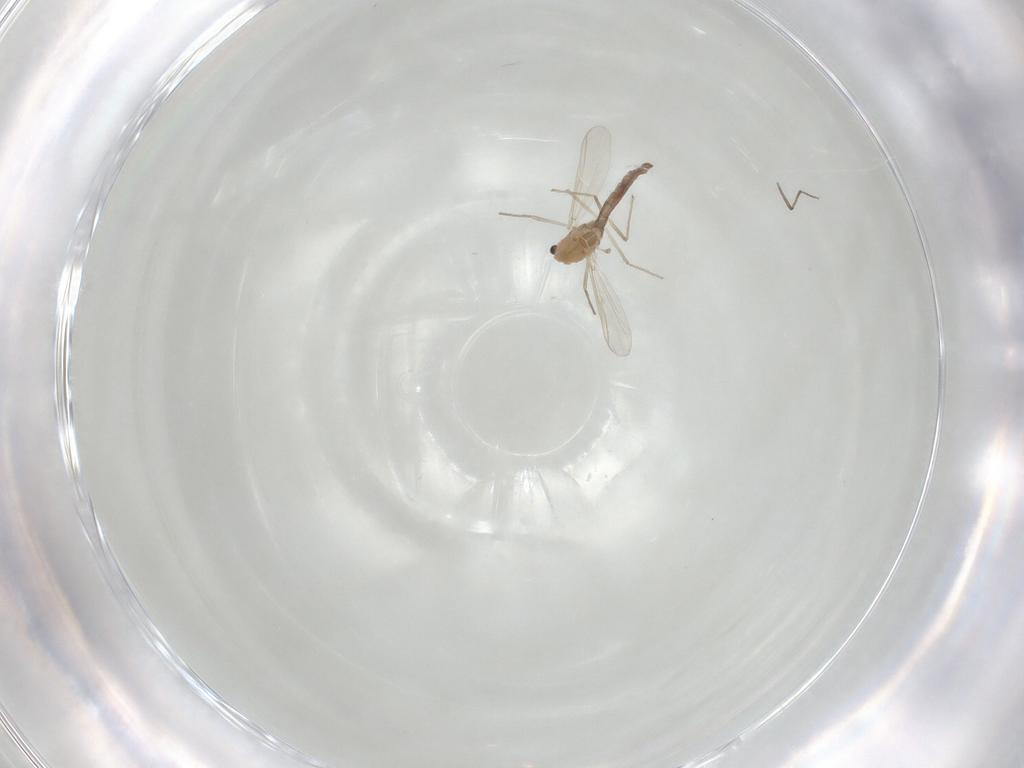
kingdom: Animalia
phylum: Arthropoda
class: Insecta
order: Diptera
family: Chironomidae
